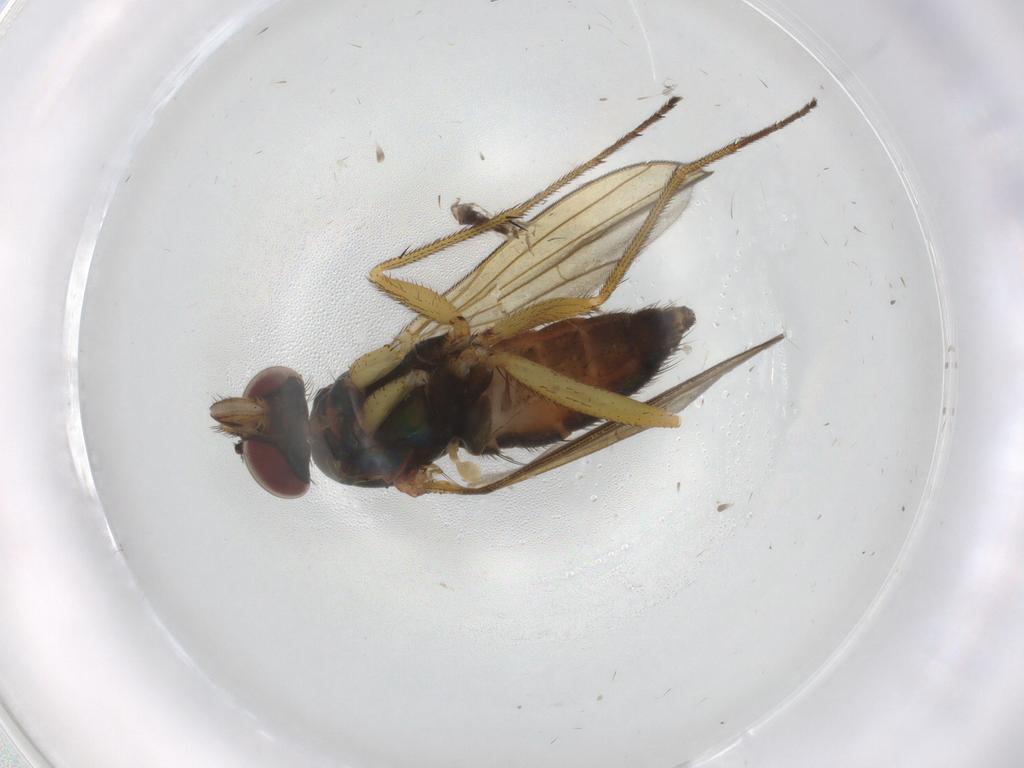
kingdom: Animalia
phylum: Arthropoda
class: Insecta
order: Diptera
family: Dolichopodidae
